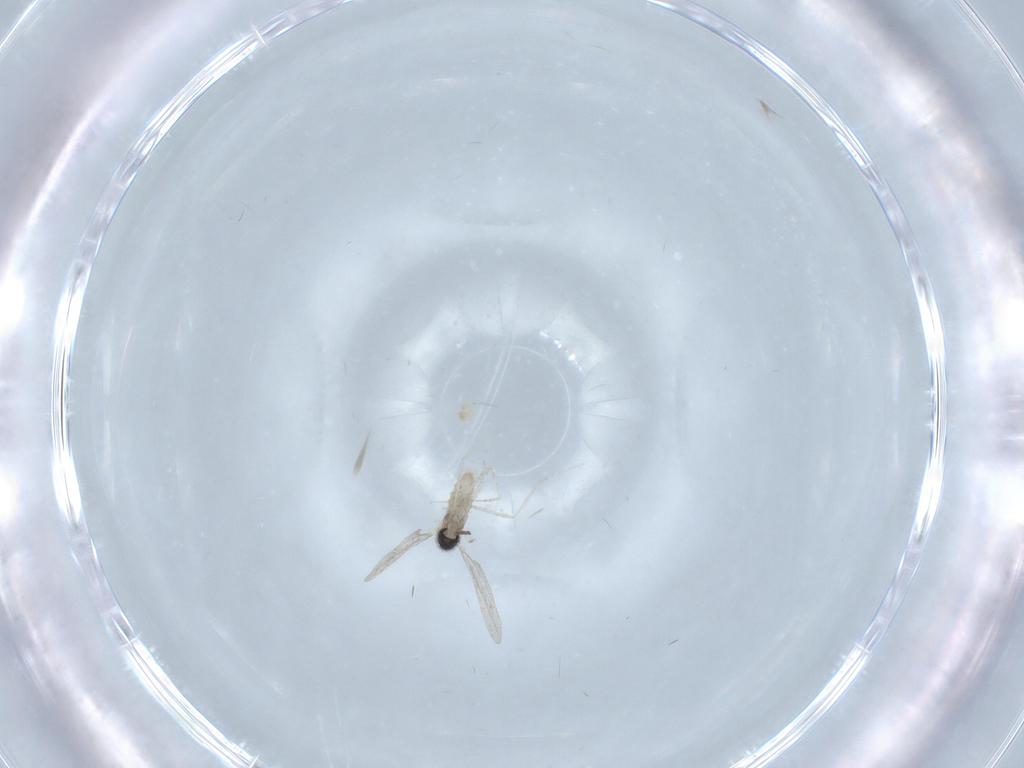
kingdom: Animalia
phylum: Arthropoda
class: Insecta
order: Diptera
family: Cecidomyiidae
